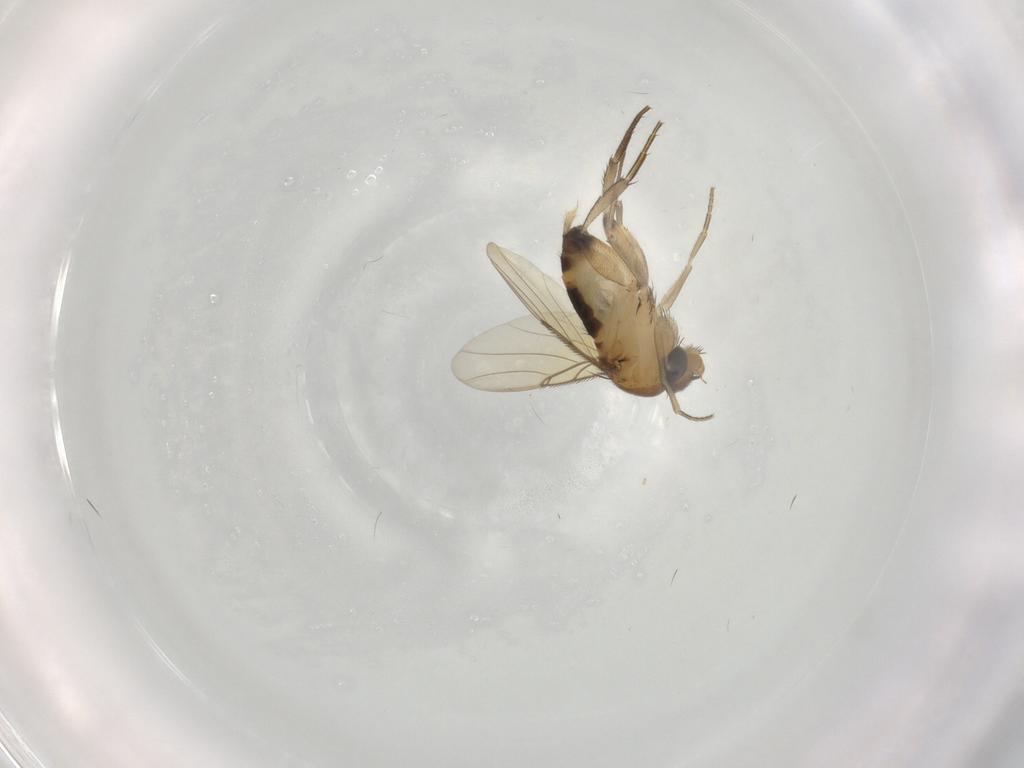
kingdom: Animalia
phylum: Arthropoda
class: Insecta
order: Diptera
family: Phoridae
